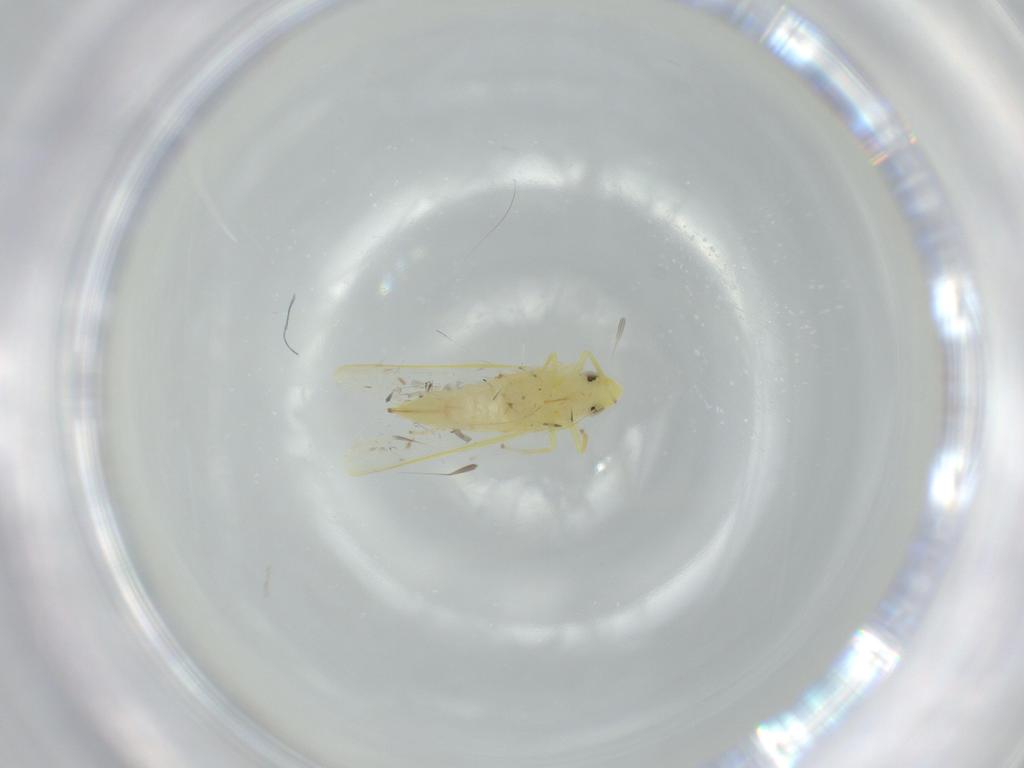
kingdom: Animalia
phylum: Arthropoda
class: Insecta
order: Hemiptera
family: Cicadellidae
